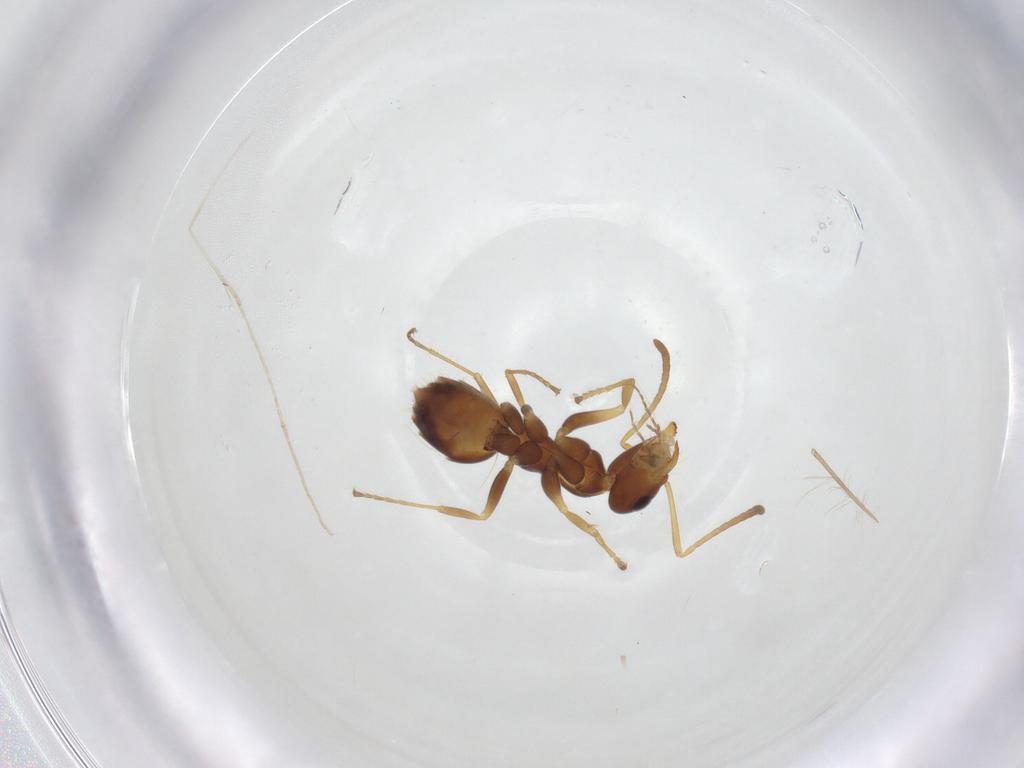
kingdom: Animalia
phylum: Arthropoda
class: Insecta
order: Hymenoptera
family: Formicidae
